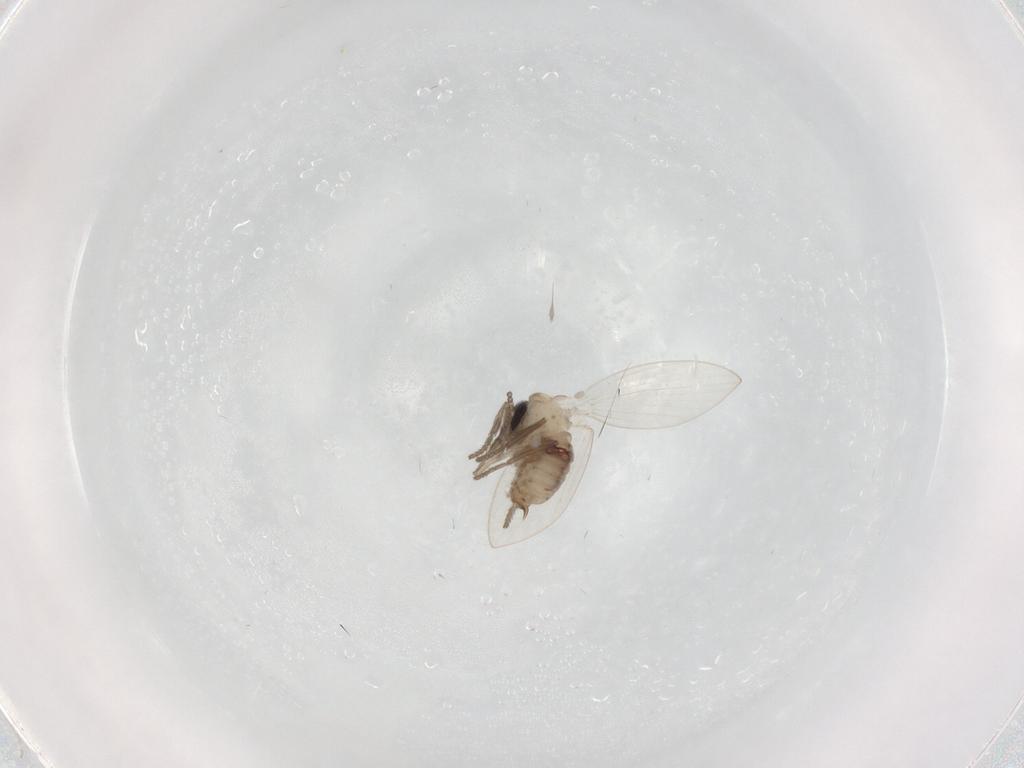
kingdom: Animalia
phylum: Arthropoda
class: Insecta
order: Diptera
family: Psychodidae
